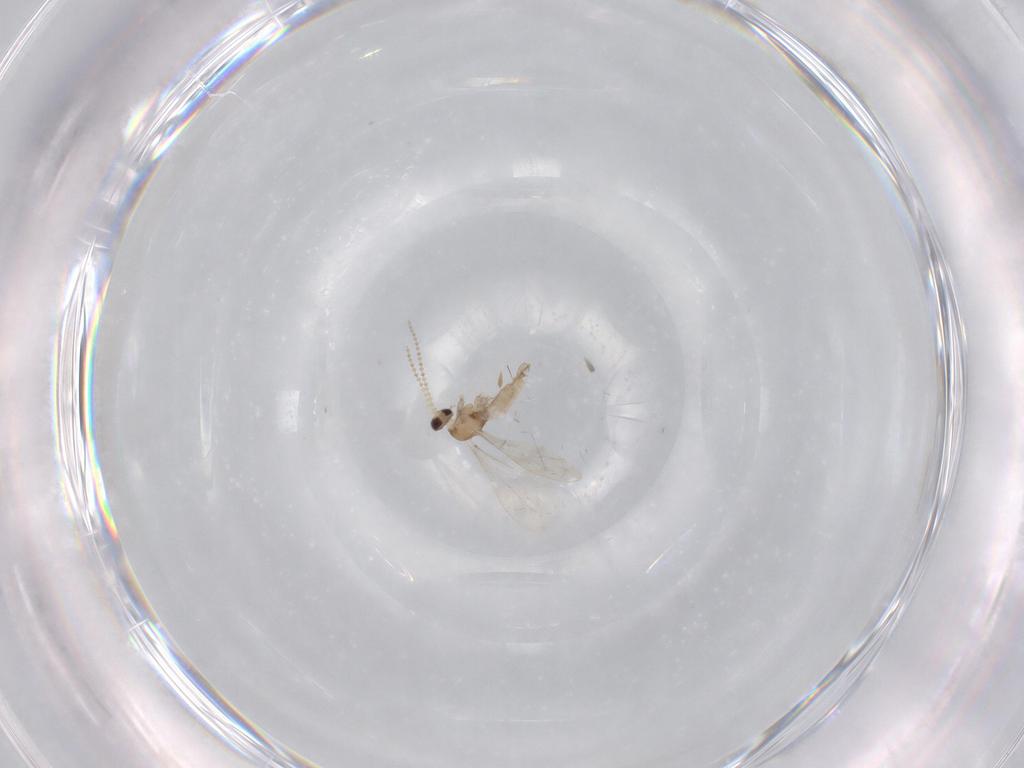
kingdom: Animalia
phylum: Arthropoda
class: Insecta
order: Diptera
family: Cecidomyiidae
